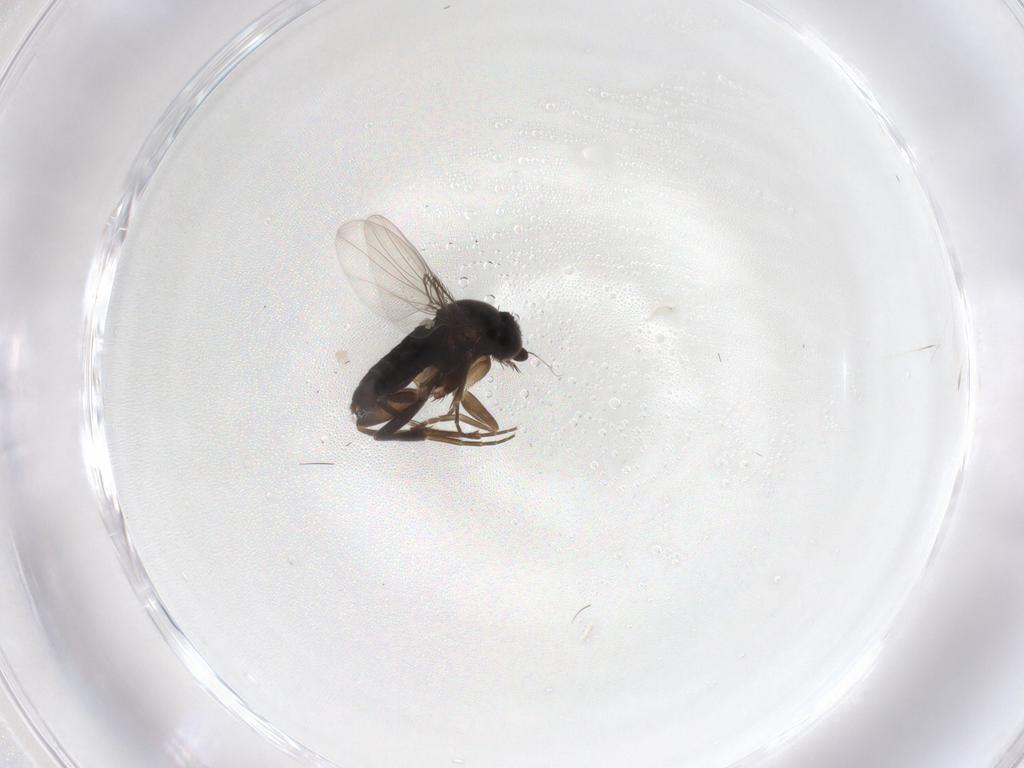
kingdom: Animalia
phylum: Arthropoda
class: Insecta
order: Diptera
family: Phoridae
